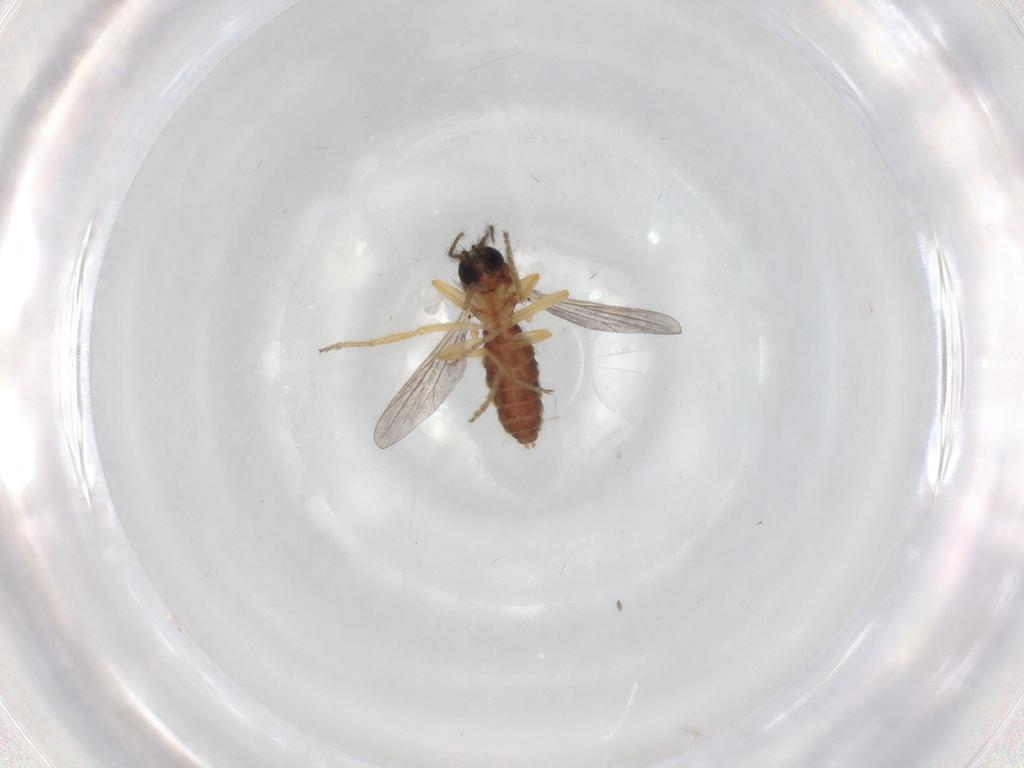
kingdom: Animalia
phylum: Arthropoda
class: Insecta
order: Diptera
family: Ceratopogonidae
